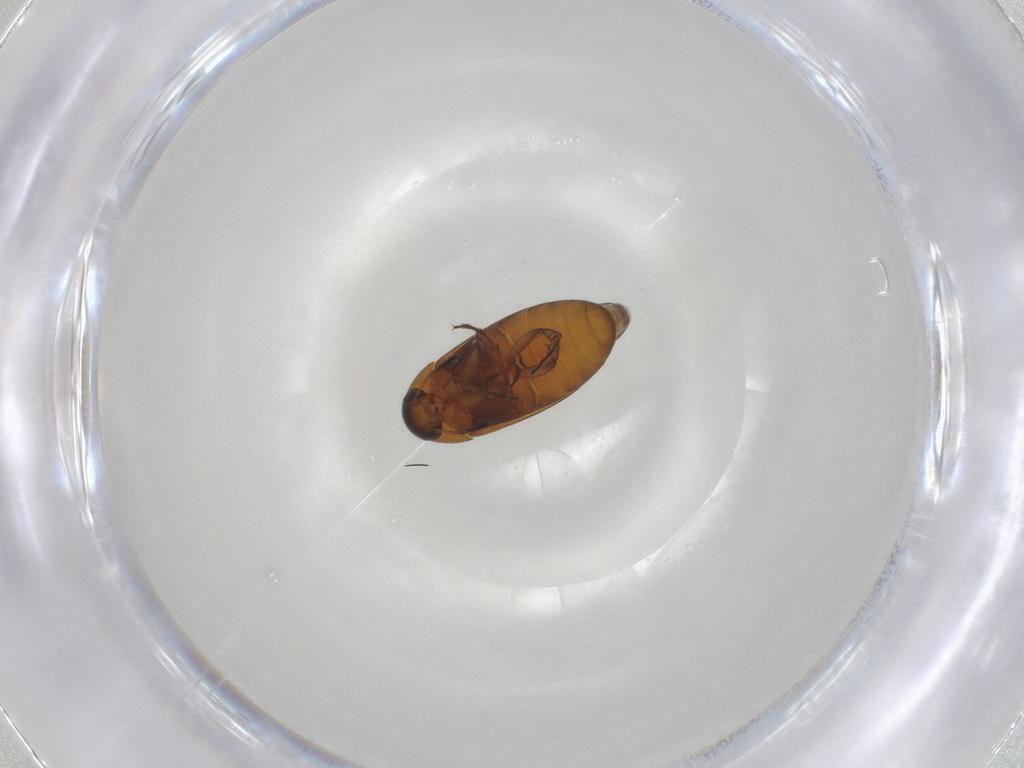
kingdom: Animalia
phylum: Arthropoda
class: Insecta
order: Coleoptera
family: Scraptiidae
